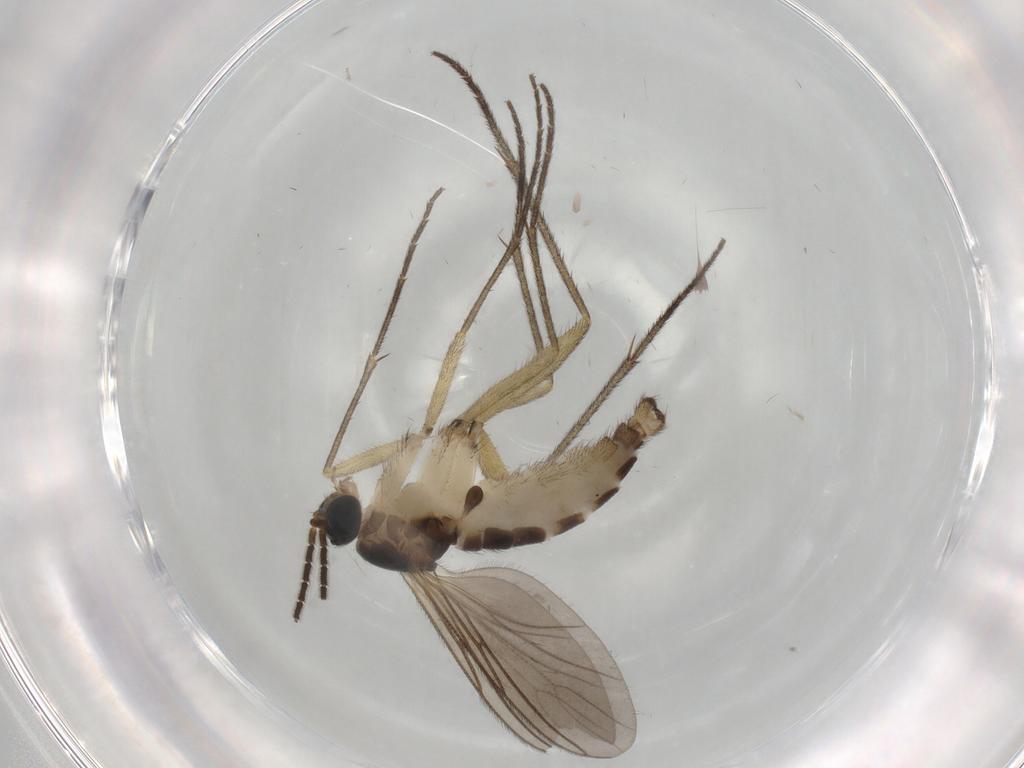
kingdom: Animalia
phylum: Arthropoda
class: Insecta
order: Diptera
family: Sciaridae
